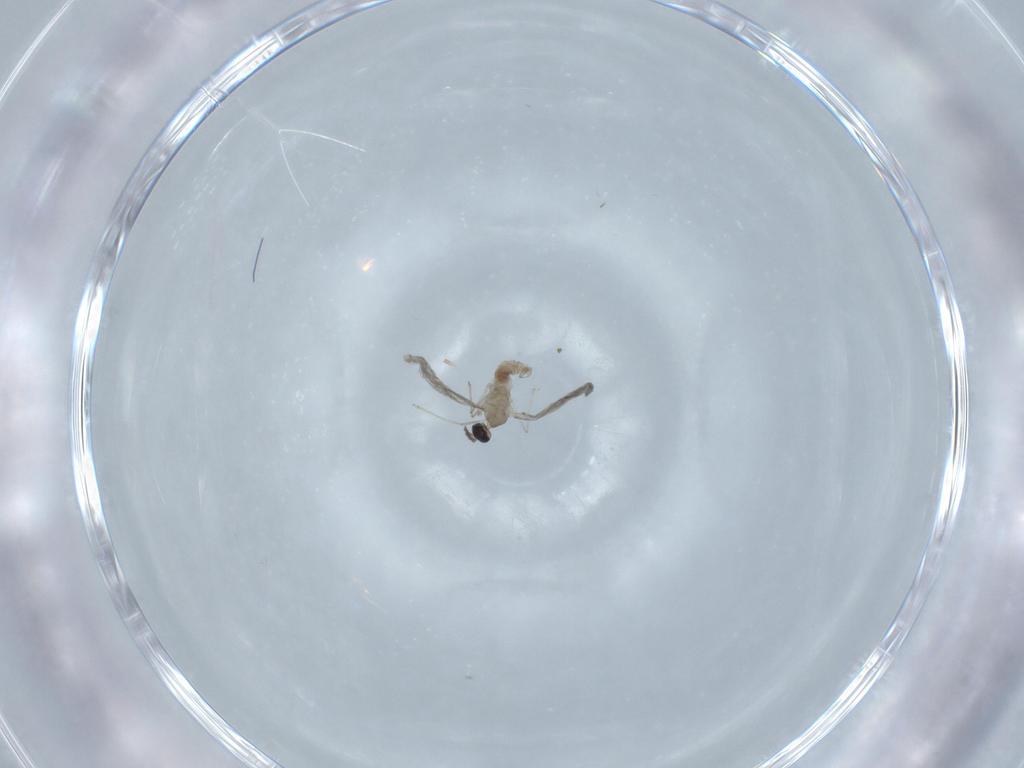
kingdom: Animalia
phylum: Arthropoda
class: Insecta
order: Diptera
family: Cecidomyiidae
